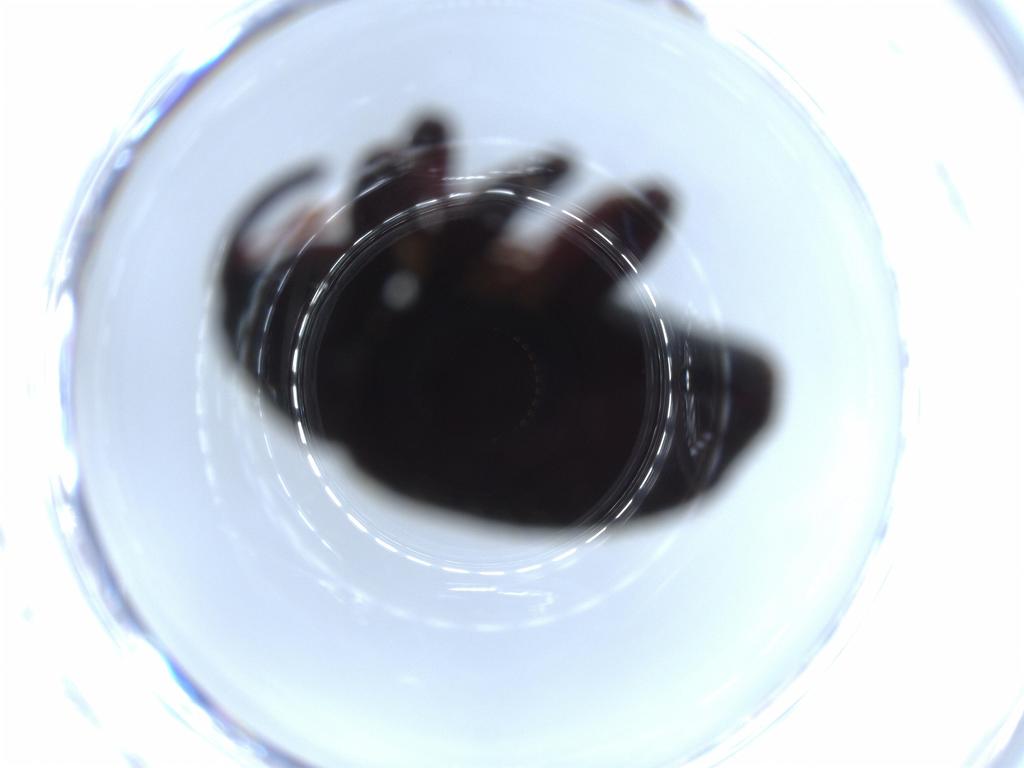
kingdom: Animalia
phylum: Arthropoda
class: Insecta
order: Coleoptera
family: Curculionidae
